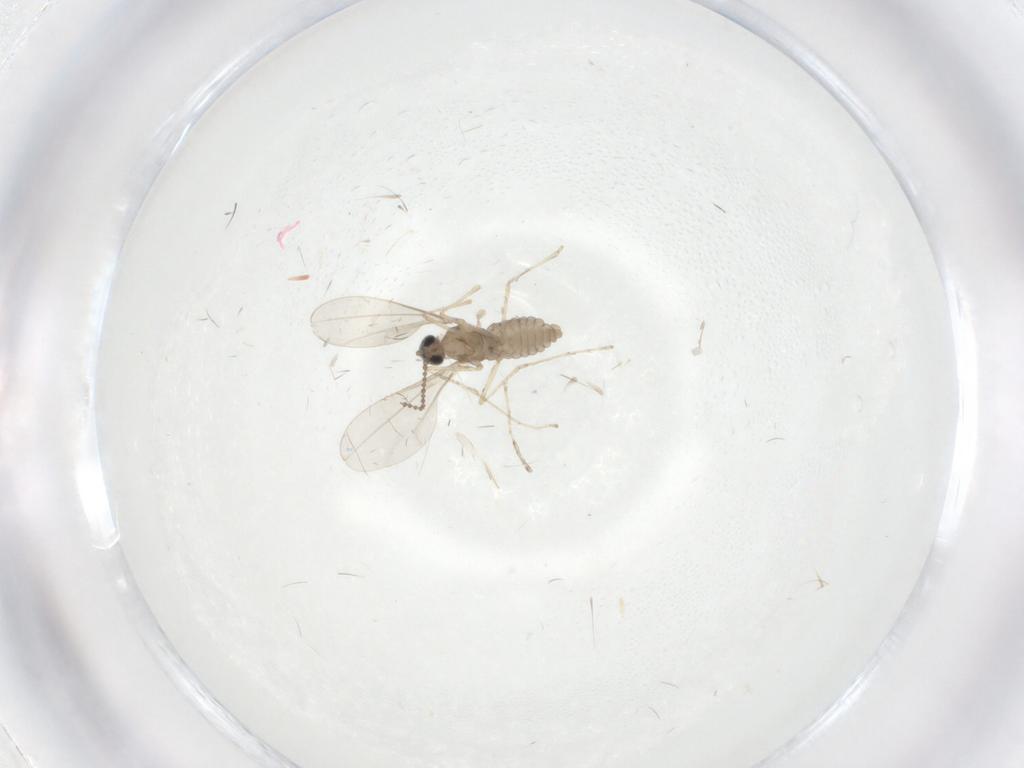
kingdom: Animalia
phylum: Arthropoda
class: Insecta
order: Diptera
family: Cecidomyiidae
